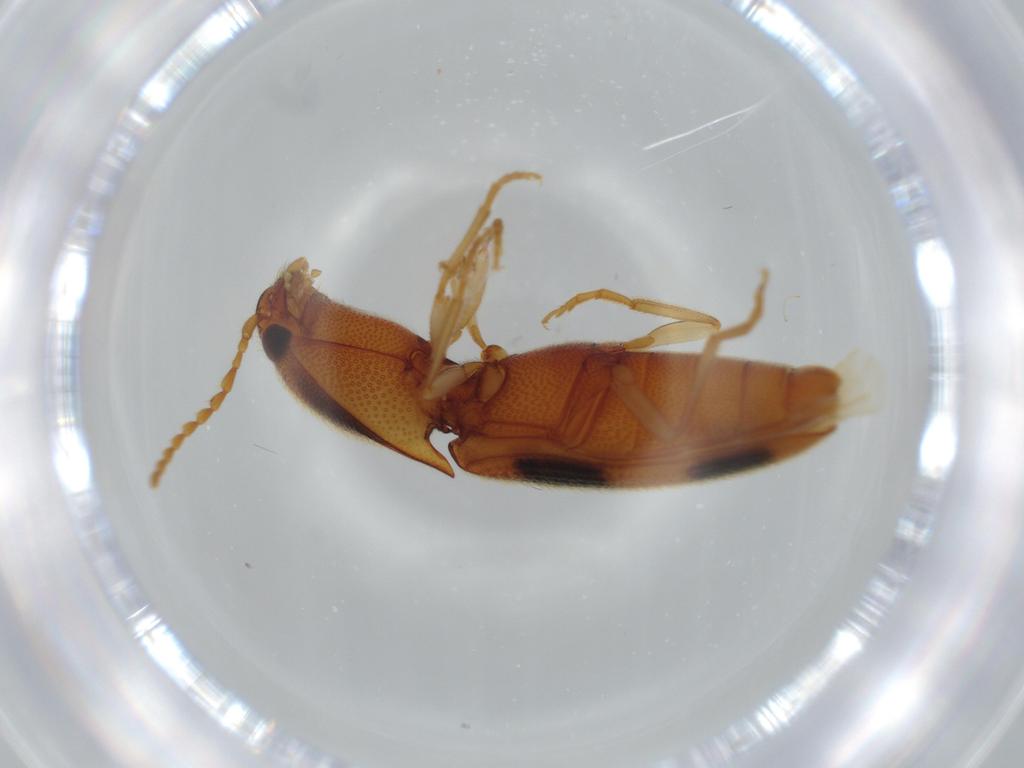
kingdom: Animalia
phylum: Arthropoda
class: Insecta
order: Coleoptera
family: Elateridae
